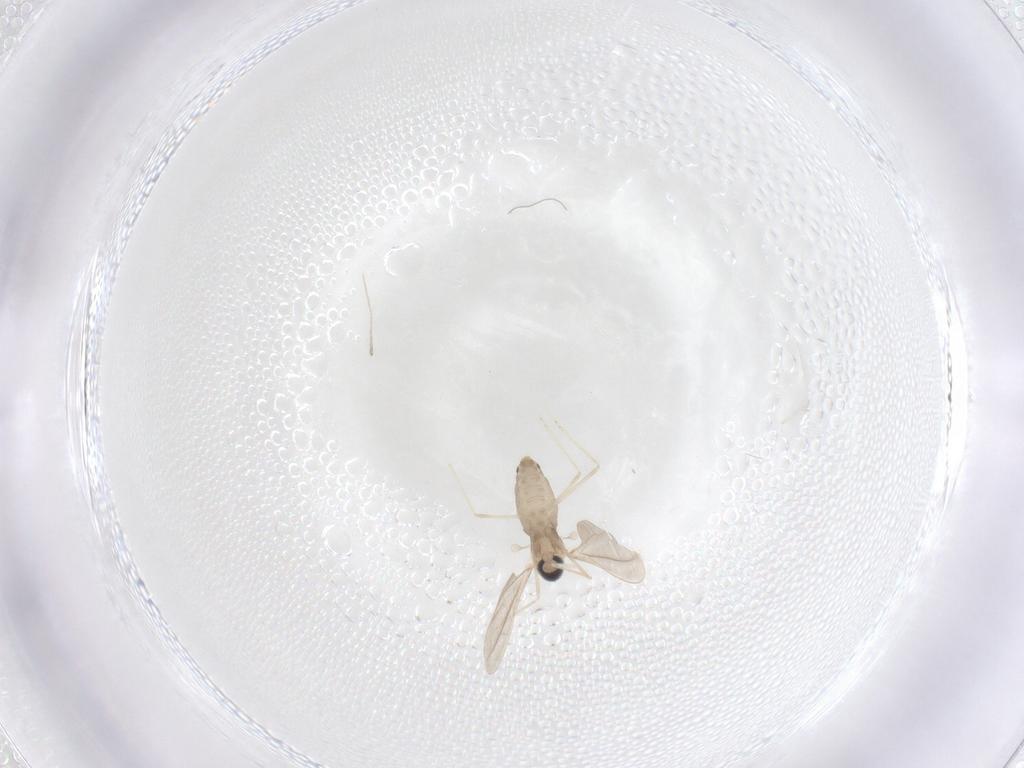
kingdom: Animalia
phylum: Arthropoda
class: Insecta
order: Diptera
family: Cecidomyiidae
